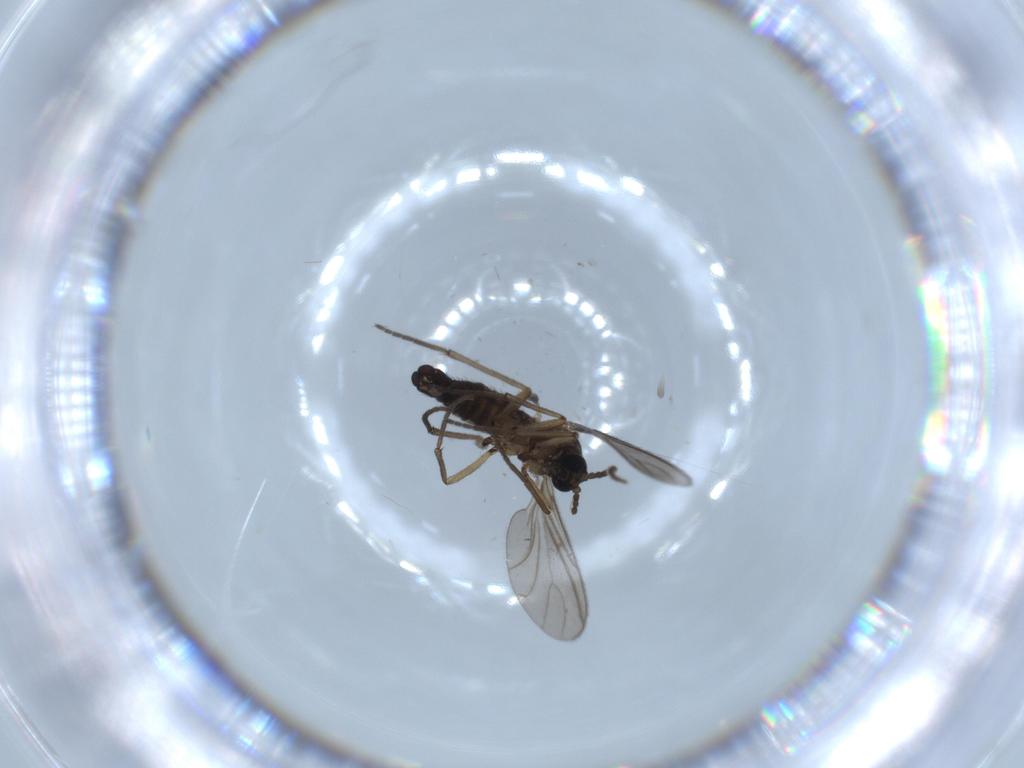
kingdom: Animalia
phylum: Arthropoda
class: Insecta
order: Diptera
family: Sciaridae
